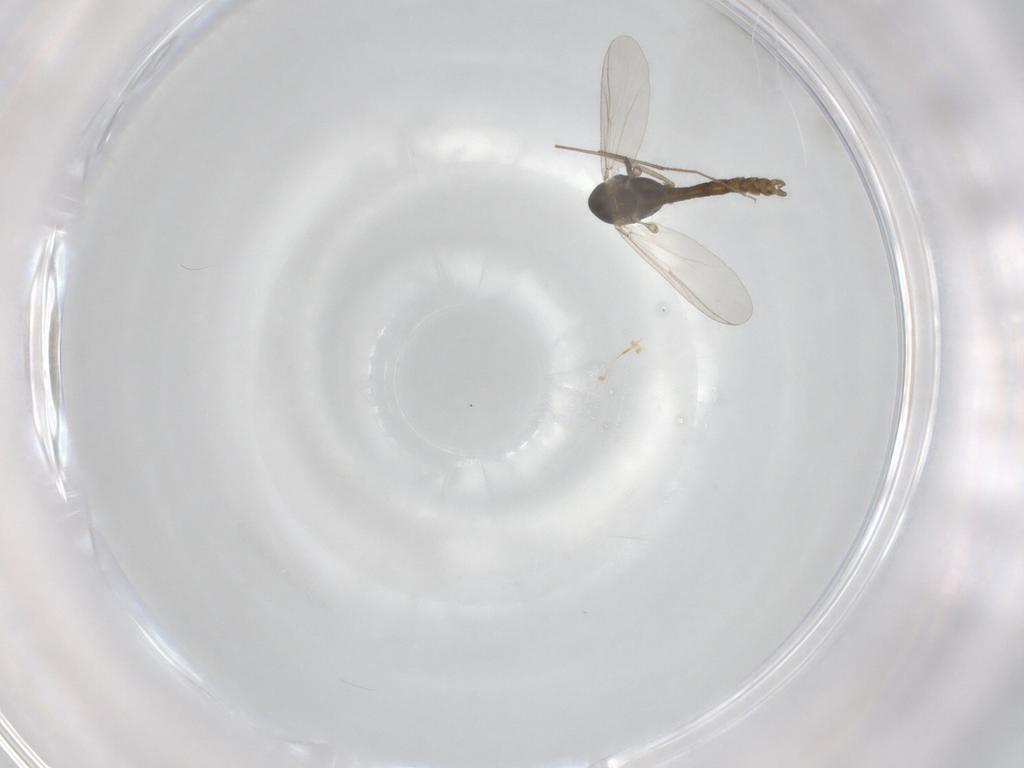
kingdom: Animalia
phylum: Arthropoda
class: Insecta
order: Diptera
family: Chironomidae
